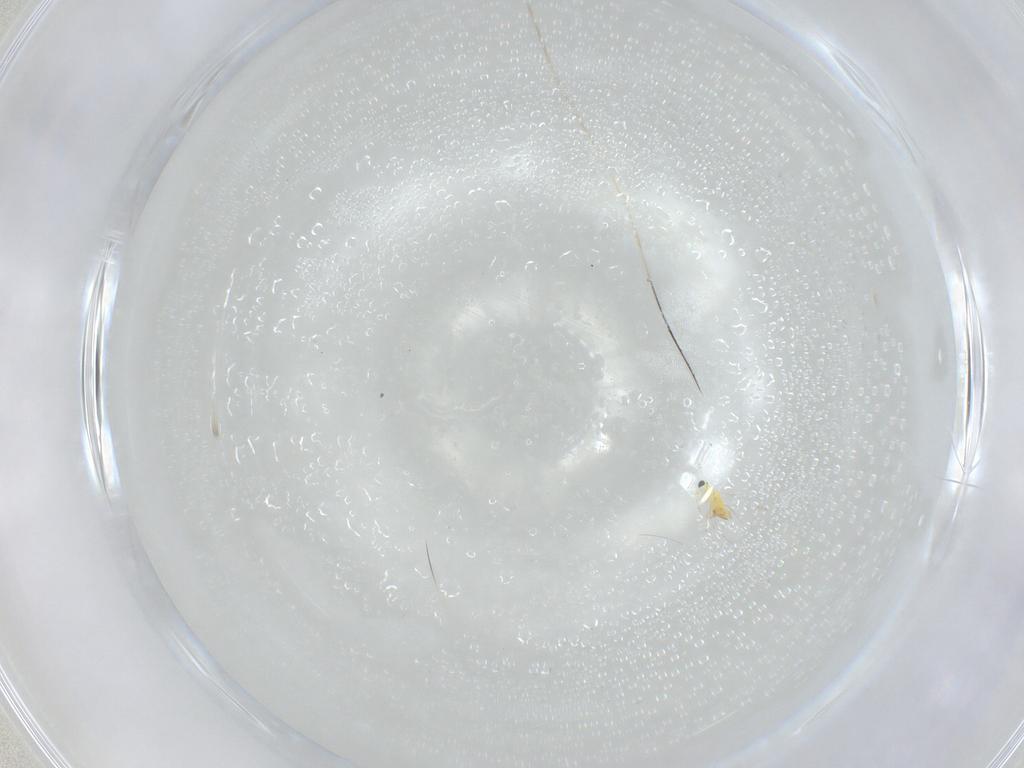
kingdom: Animalia
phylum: Arthropoda
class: Insecta
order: Hymenoptera
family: Trichogrammatidae
